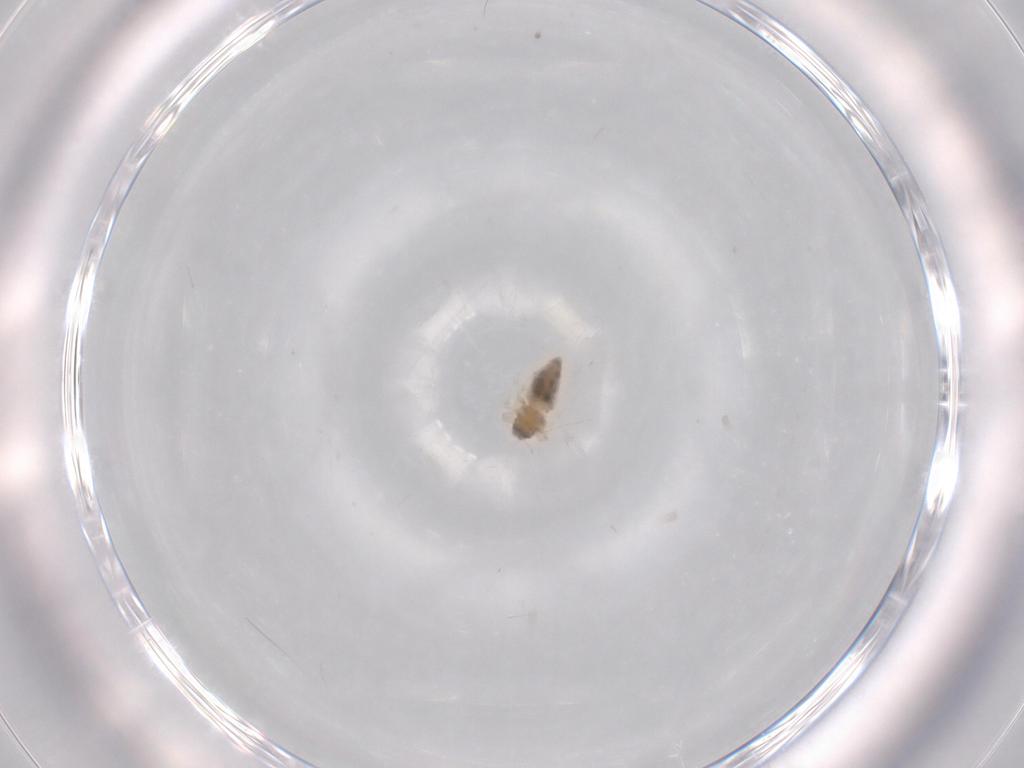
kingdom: Animalia
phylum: Arthropoda
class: Insecta
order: Hemiptera
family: Aleyrodidae
